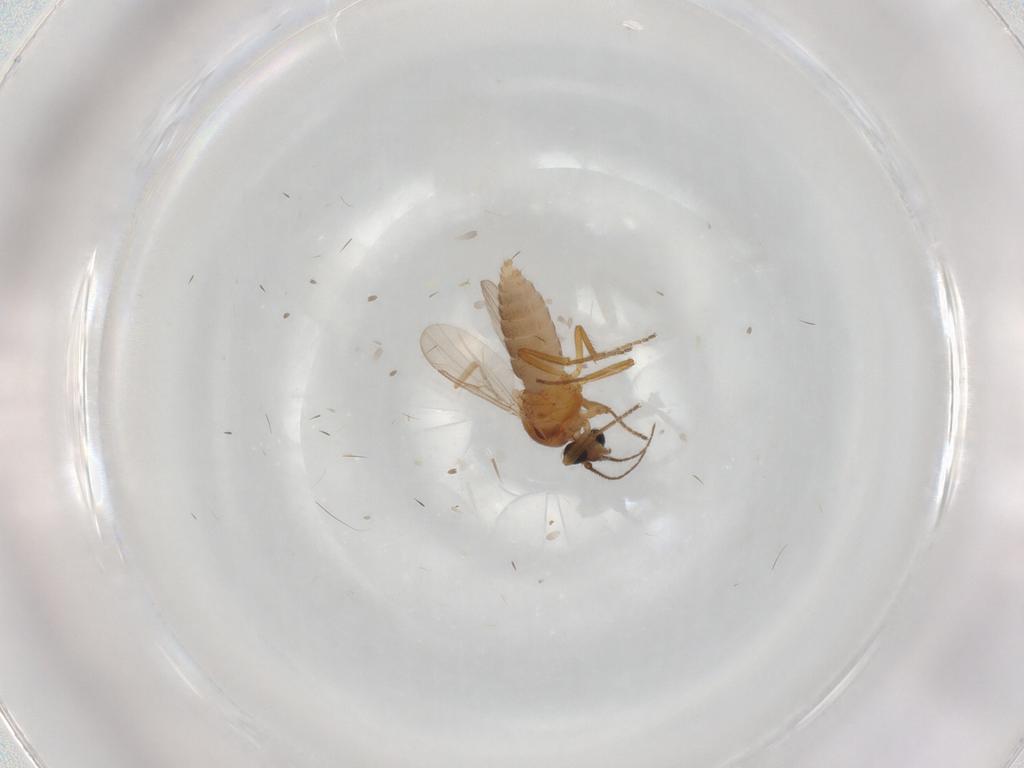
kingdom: Animalia
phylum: Arthropoda
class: Insecta
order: Diptera
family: Ceratopogonidae
